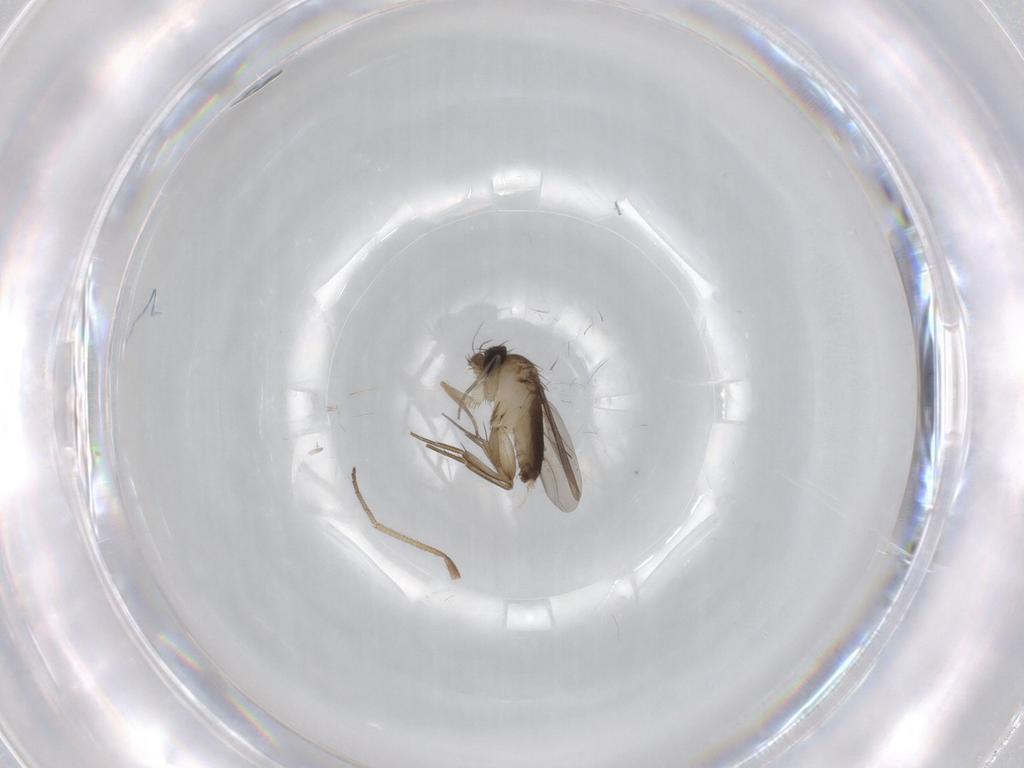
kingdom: Animalia
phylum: Arthropoda
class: Insecta
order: Diptera
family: Phoridae
